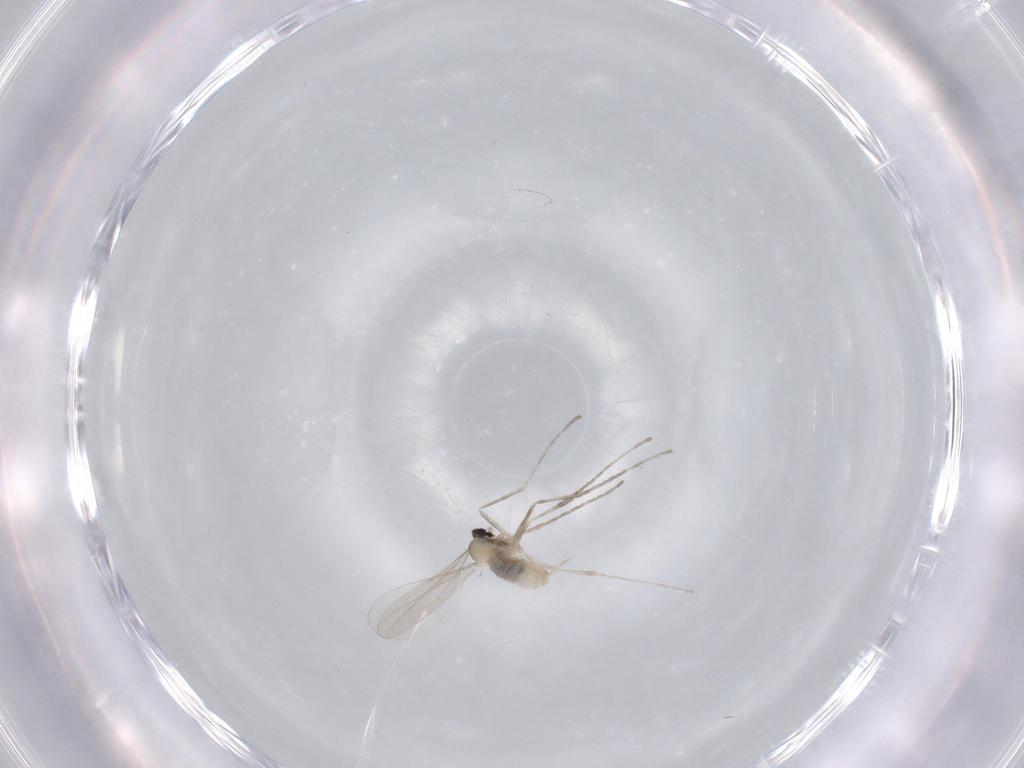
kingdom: Animalia
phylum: Arthropoda
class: Insecta
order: Diptera
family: Cecidomyiidae
